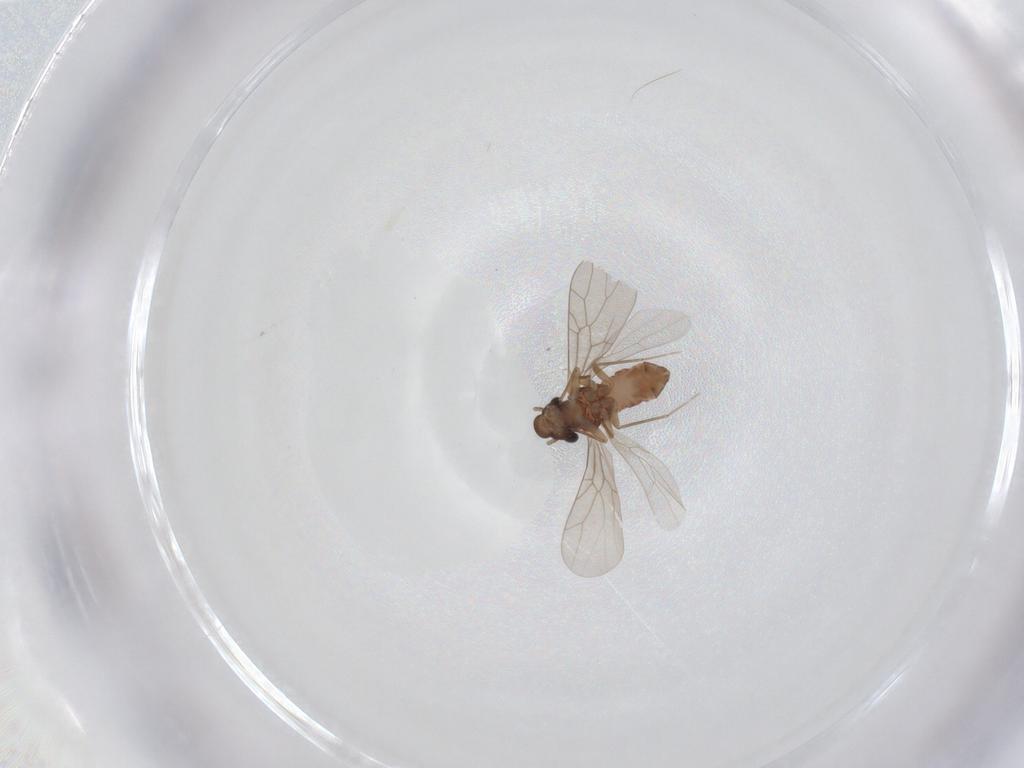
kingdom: Animalia
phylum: Arthropoda
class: Insecta
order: Psocodea
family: Lepidopsocidae
